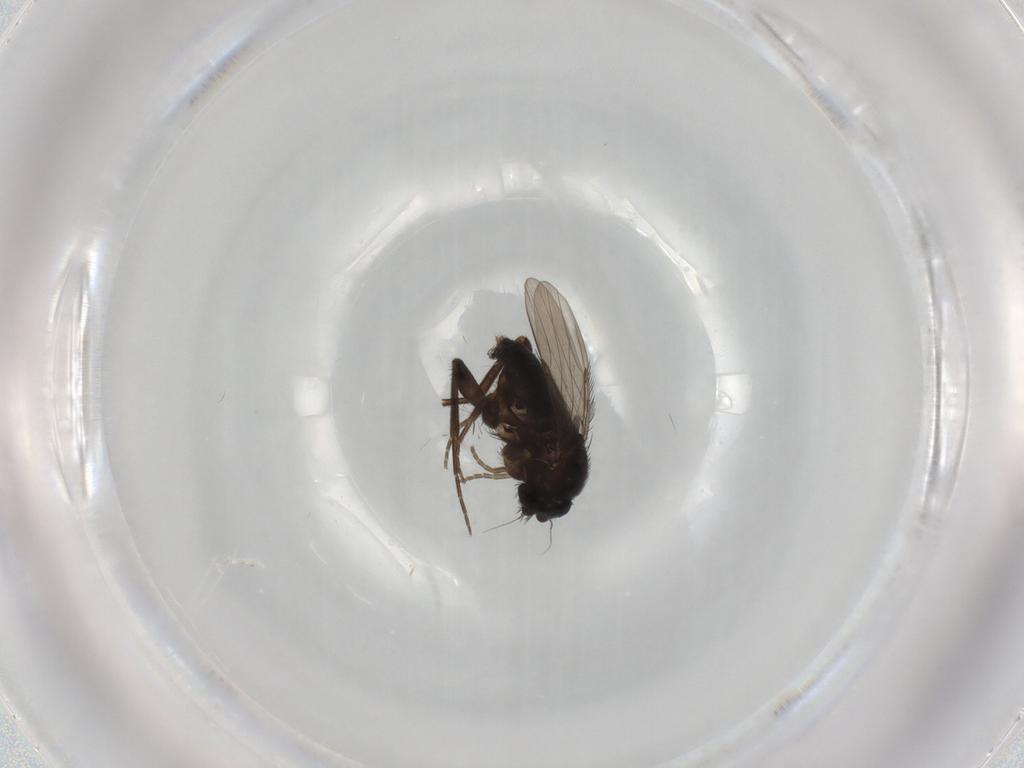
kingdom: Animalia
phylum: Arthropoda
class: Insecta
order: Diptera
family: Phoridae
